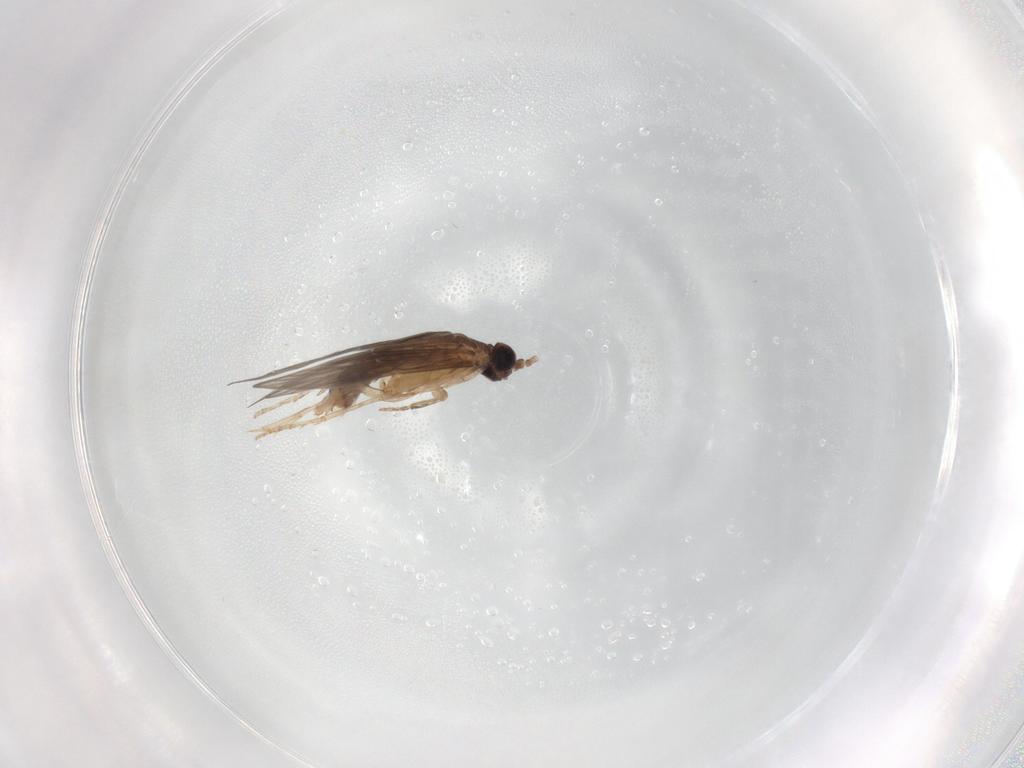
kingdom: Animalia
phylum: Arthropoda
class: Insecta
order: Trichoptera
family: Hydroptilidae
